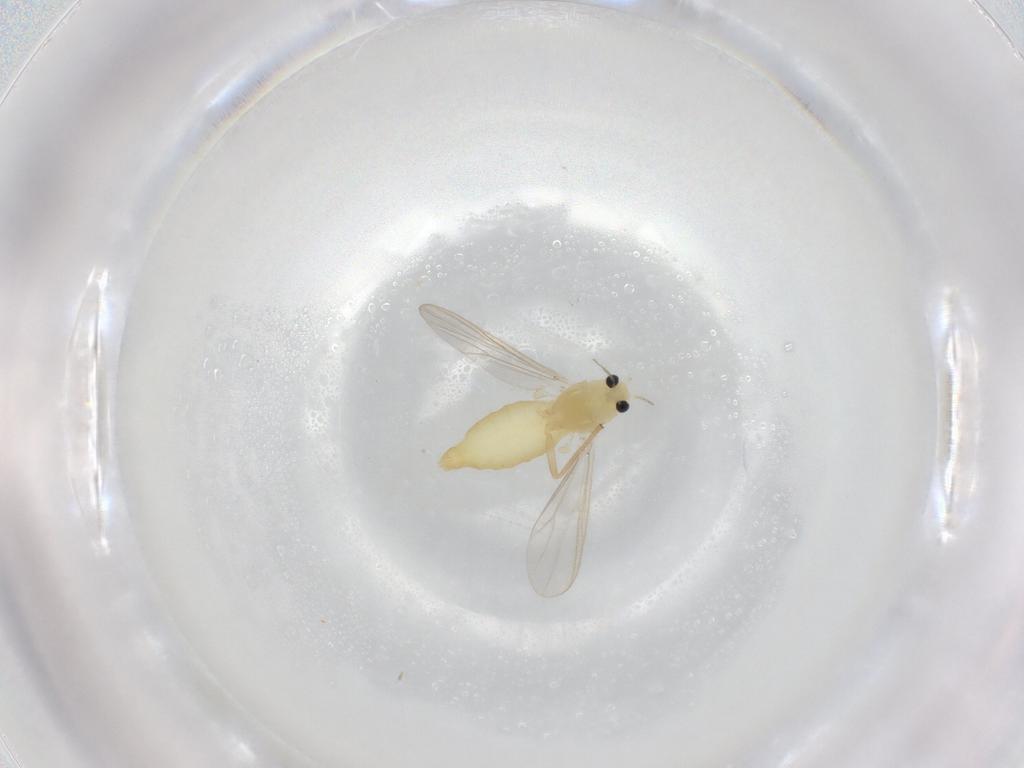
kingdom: Animalia
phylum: Arthropoda
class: Insecta
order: Diptera
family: Chironomidae
